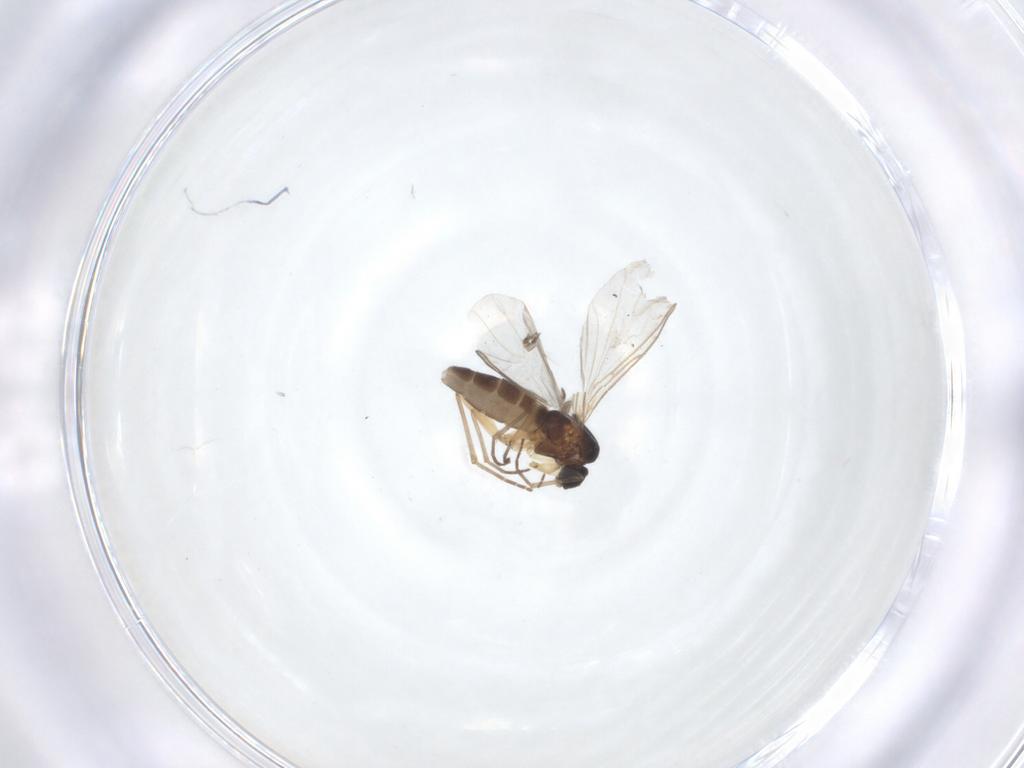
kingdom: Animalia
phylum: Arthropoda
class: Insecta
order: Diptera
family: Sciaridae
